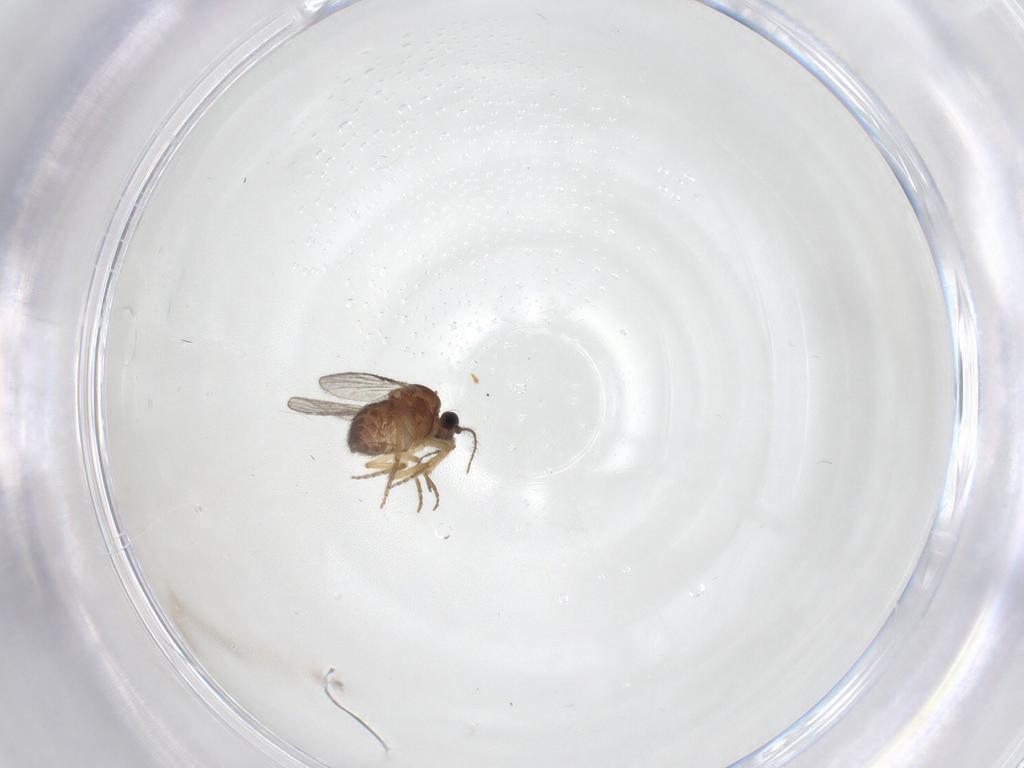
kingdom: Animalia
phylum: Arthropoda
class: Insecta
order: Diptera
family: Ceratopogonidae
